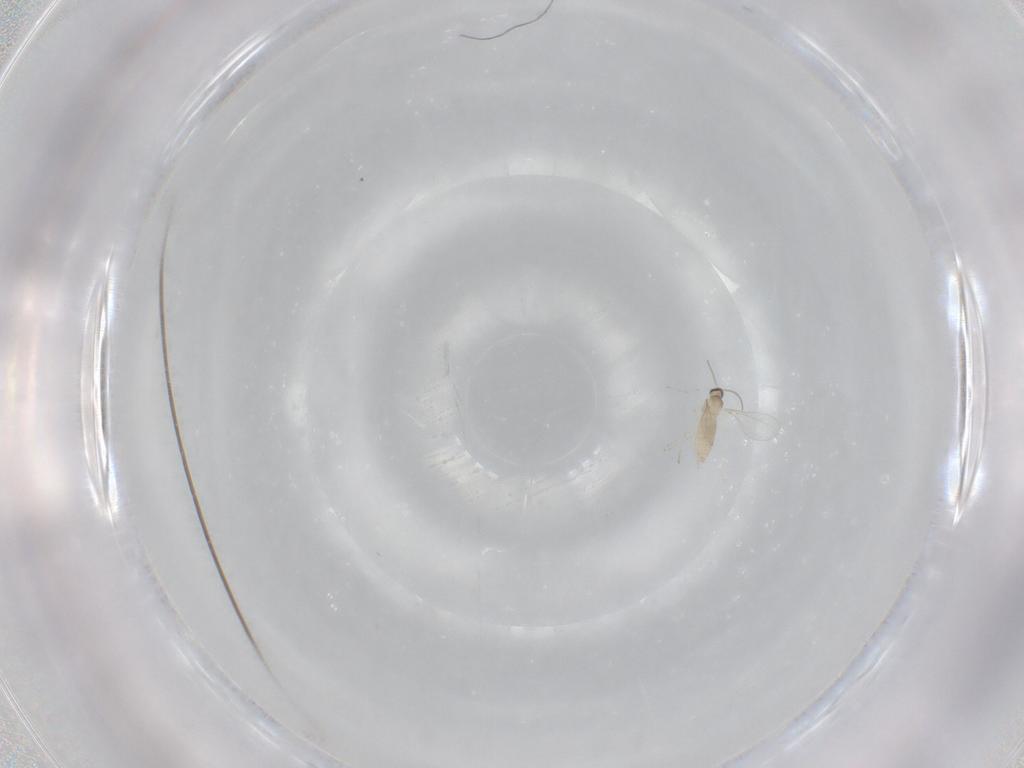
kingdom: Animalia
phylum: Arthropoda
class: Insecta
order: Diptera
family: Cecidomyiidae
